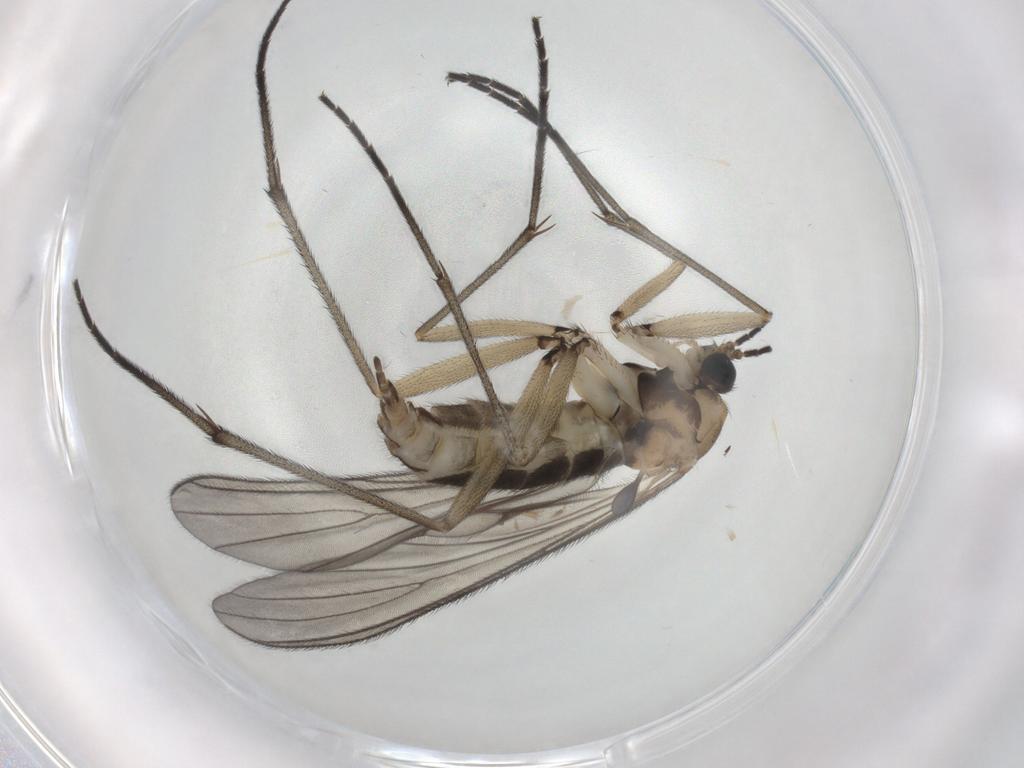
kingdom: Animalia
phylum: Arthropoda
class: Insecta
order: Diptera
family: Sciaridae
